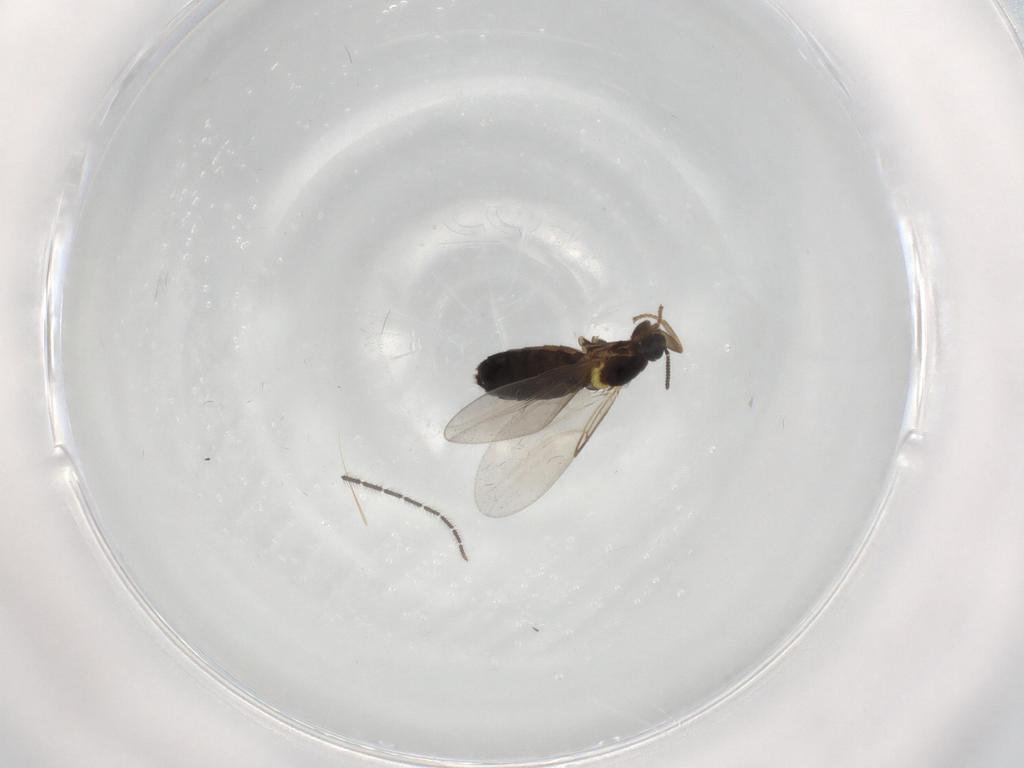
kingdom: Animalia
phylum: Arthropoda
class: Insecta
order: Diptera
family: Scatopsidae
